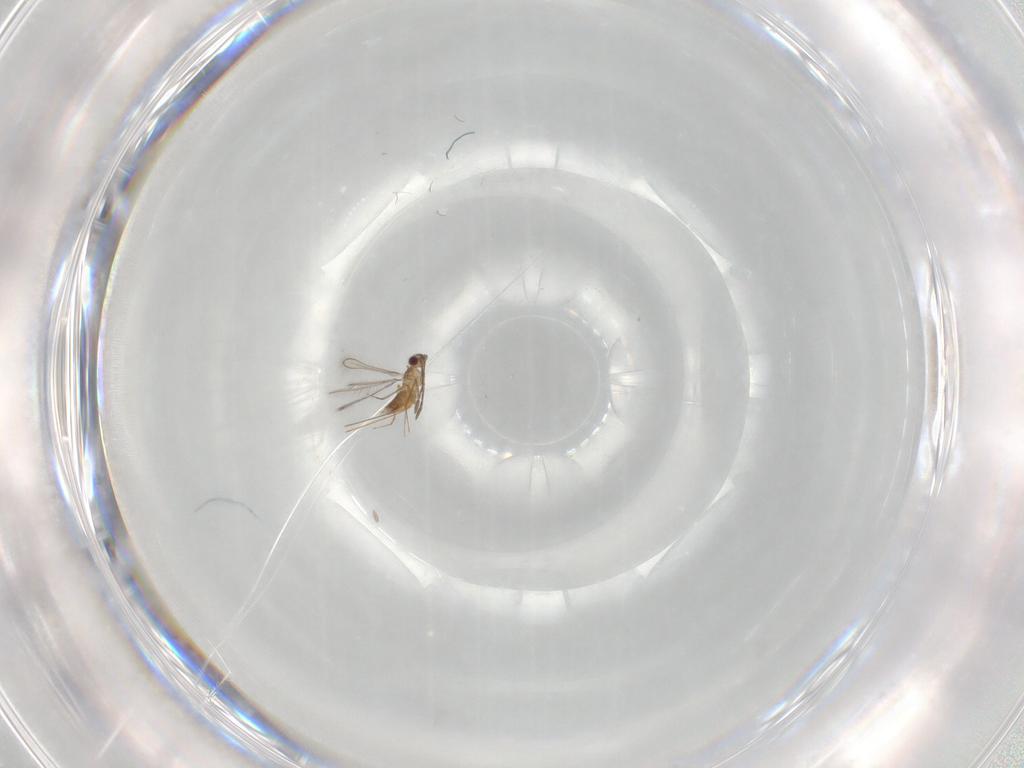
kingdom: Animalia
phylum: Arthropoda
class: Insecta
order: Hymenoptera
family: Mymaridae
